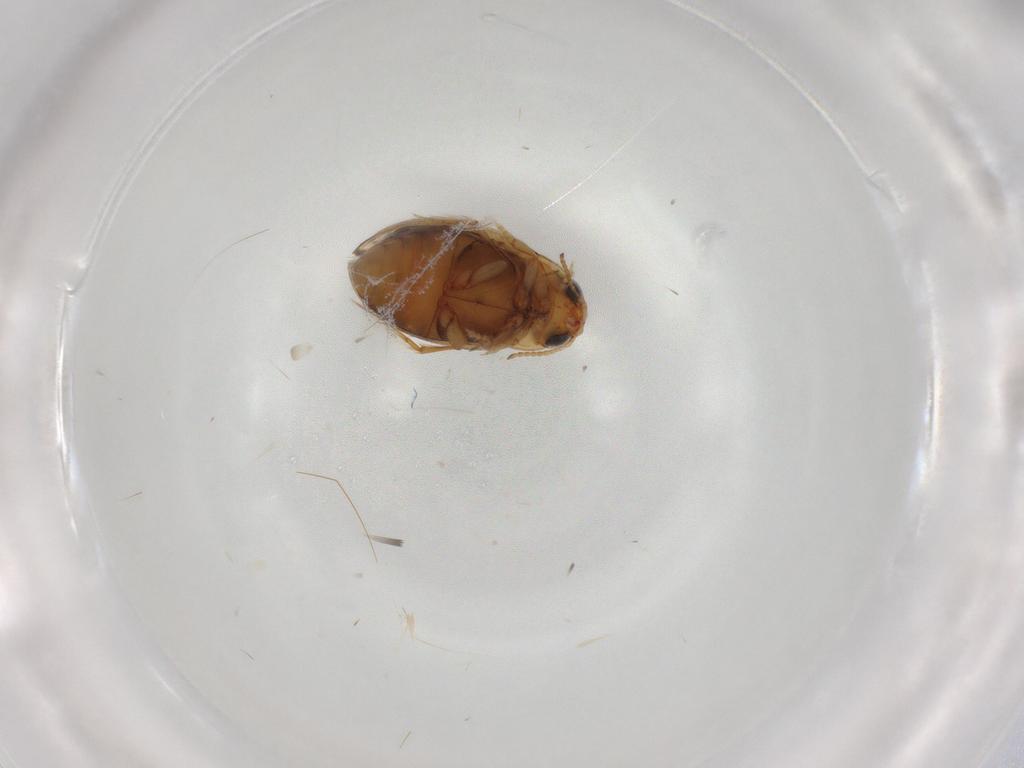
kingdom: Animalia
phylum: Arthropoda
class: Insecta
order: Coleoptera
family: Dytiscidae
